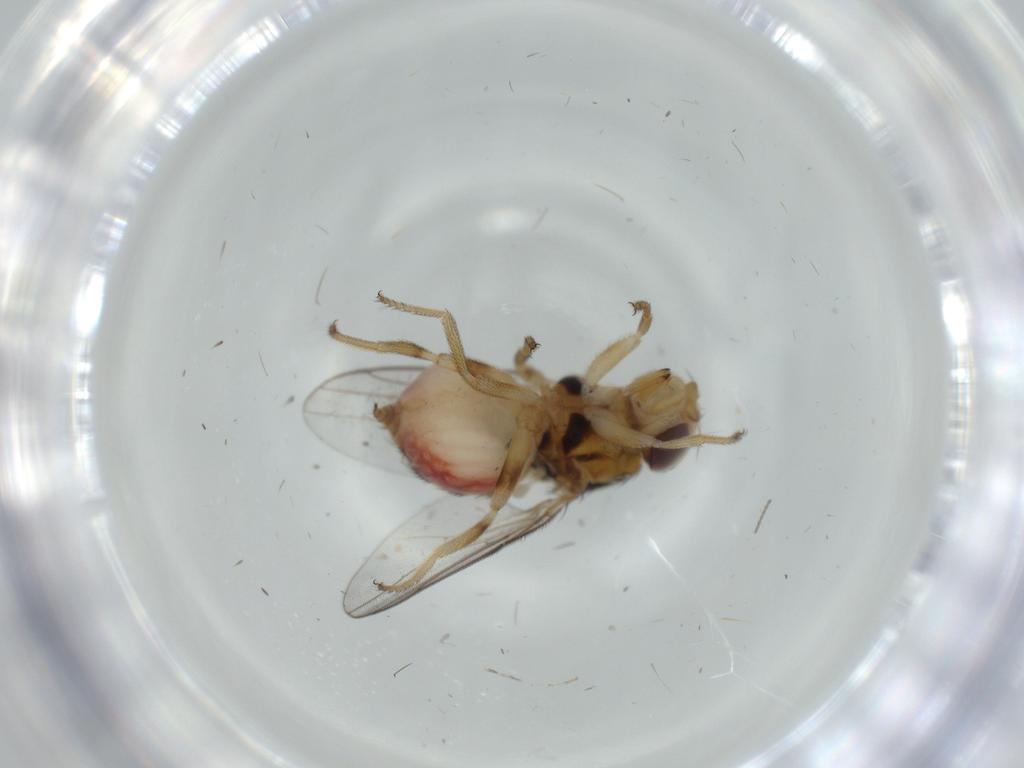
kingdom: Animalia
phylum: Arthropoda
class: Insecta
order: Diptera
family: Chloropidae
